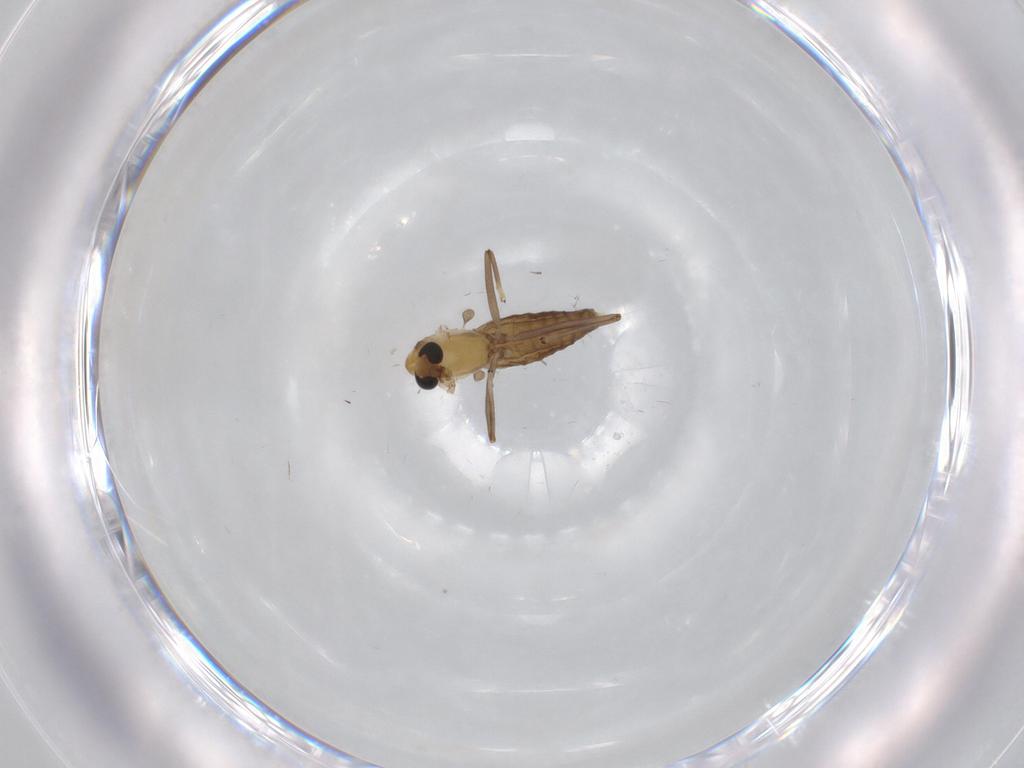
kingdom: Animalia
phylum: Arthropoda
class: Insecta
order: Diptera
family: Chironomidae
